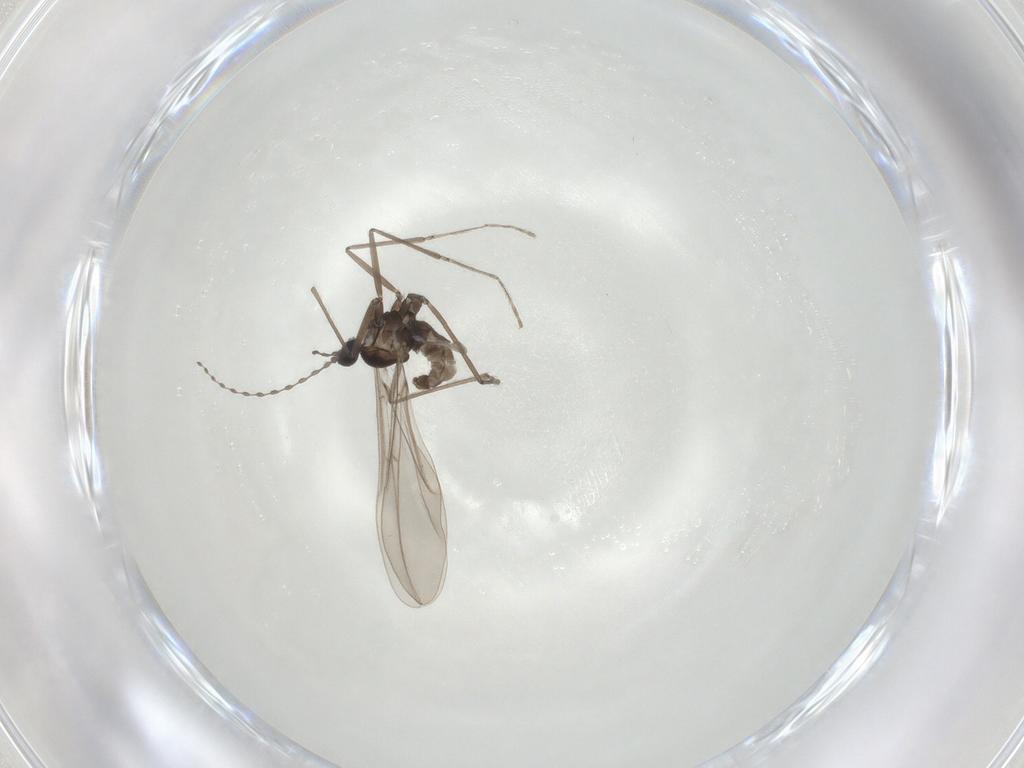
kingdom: Animalia
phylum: Arthropoda
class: Insecta
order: Diptera
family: Cecidomyiidae
